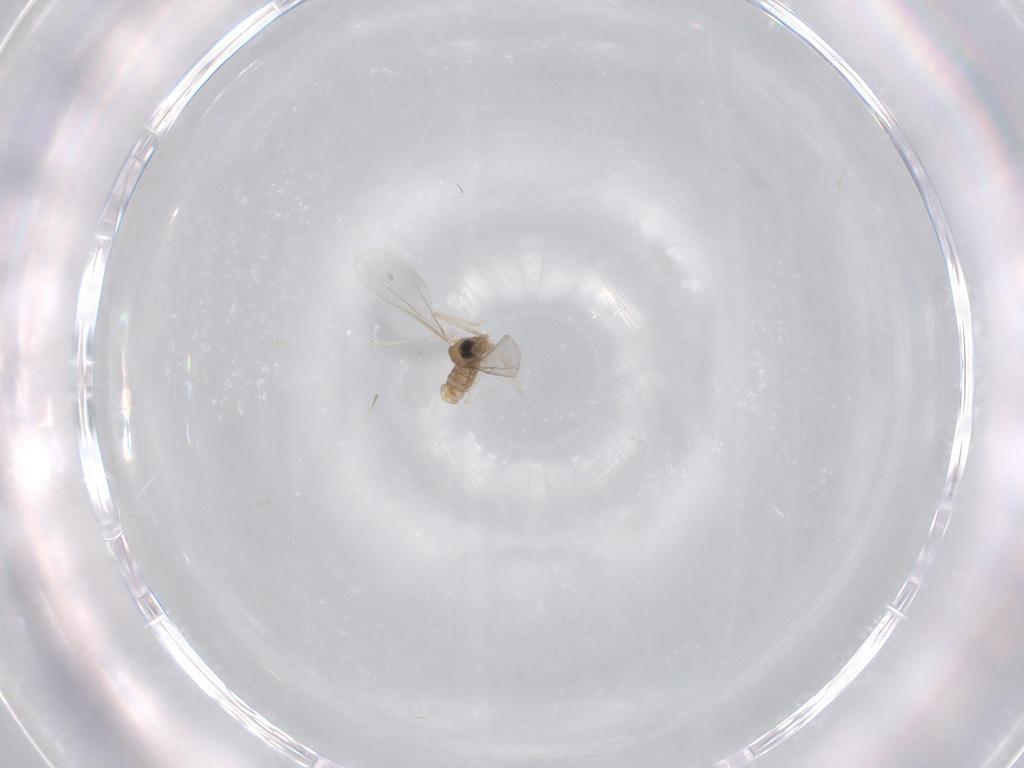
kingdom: Animalia
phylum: Arthropoda
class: Insecta
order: Diptera
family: Cecidomyiidae
